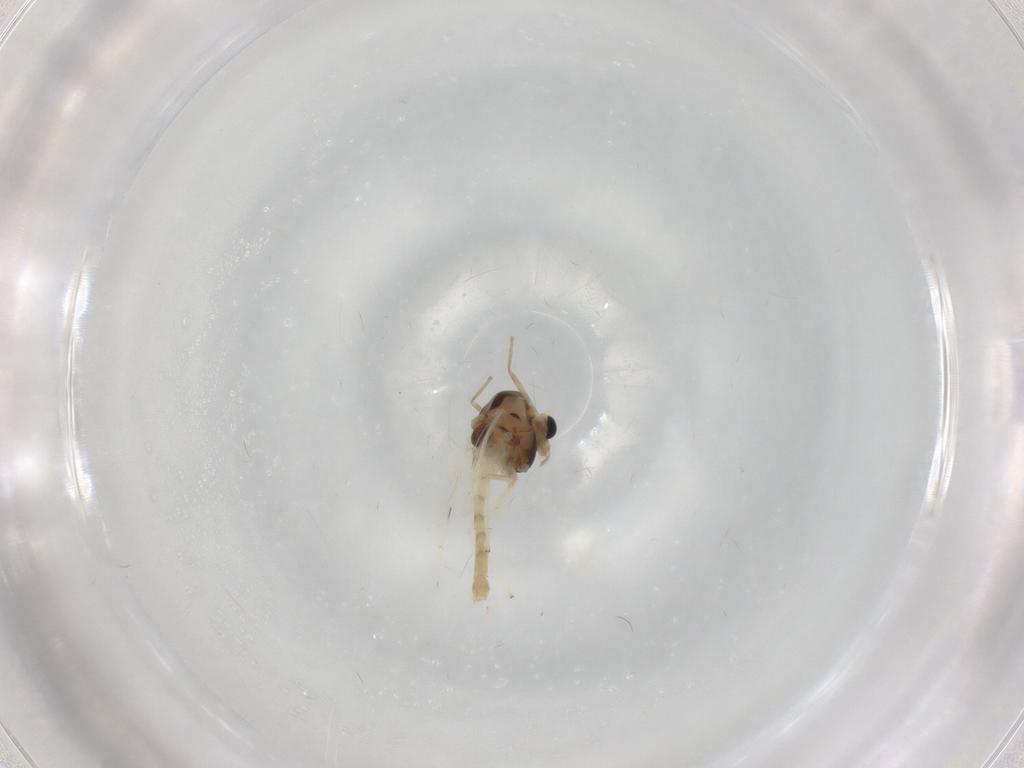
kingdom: Animalia
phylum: Arthropoda
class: Insecta
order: Diptera
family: Chironomidae
